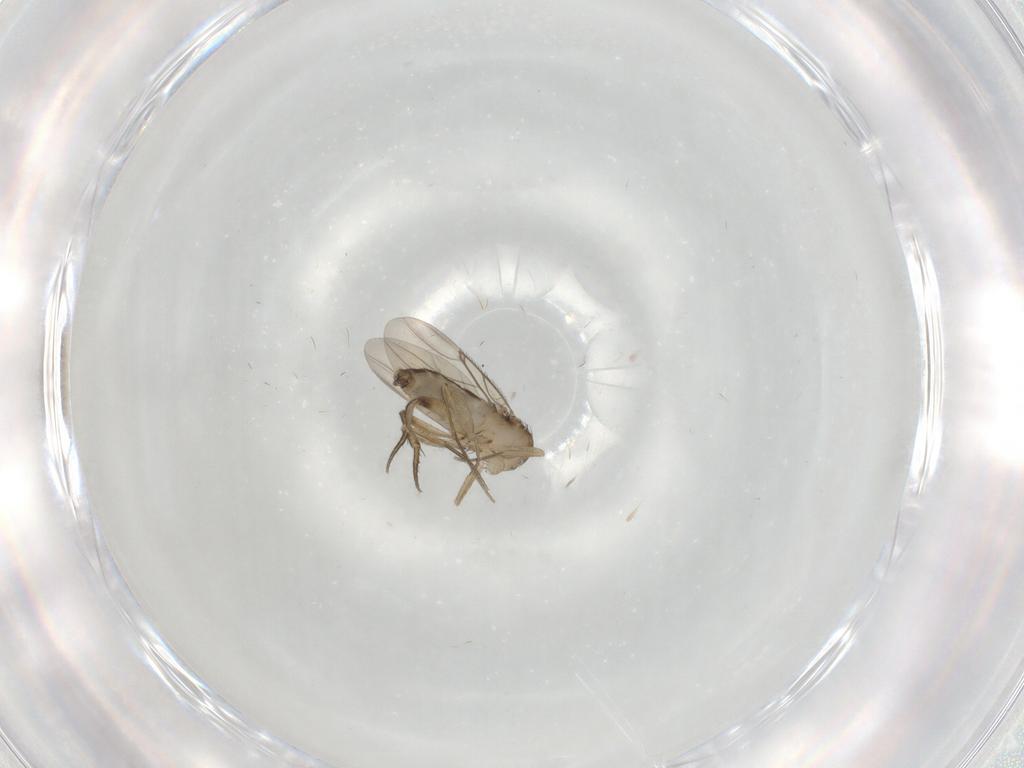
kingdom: Animalia
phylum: Arthropoda
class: Insecta
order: Diptera
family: Phoridae
